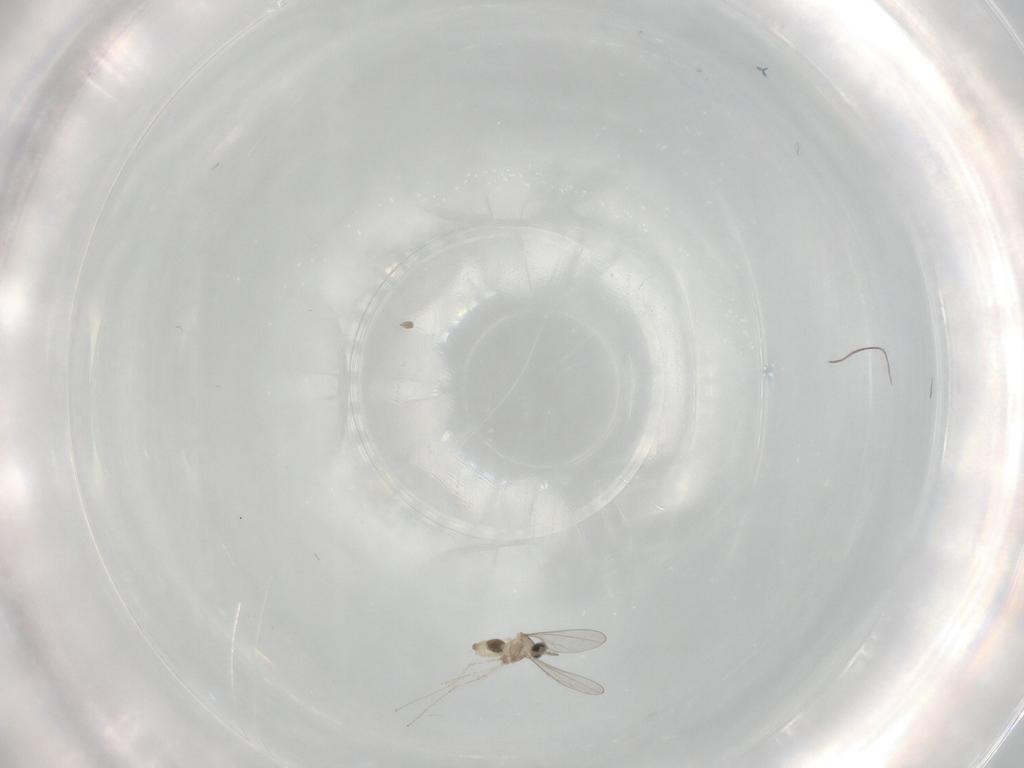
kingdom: Animalia
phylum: Arthropoda
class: Insecta
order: Diptera
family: Cecidomyiidae
